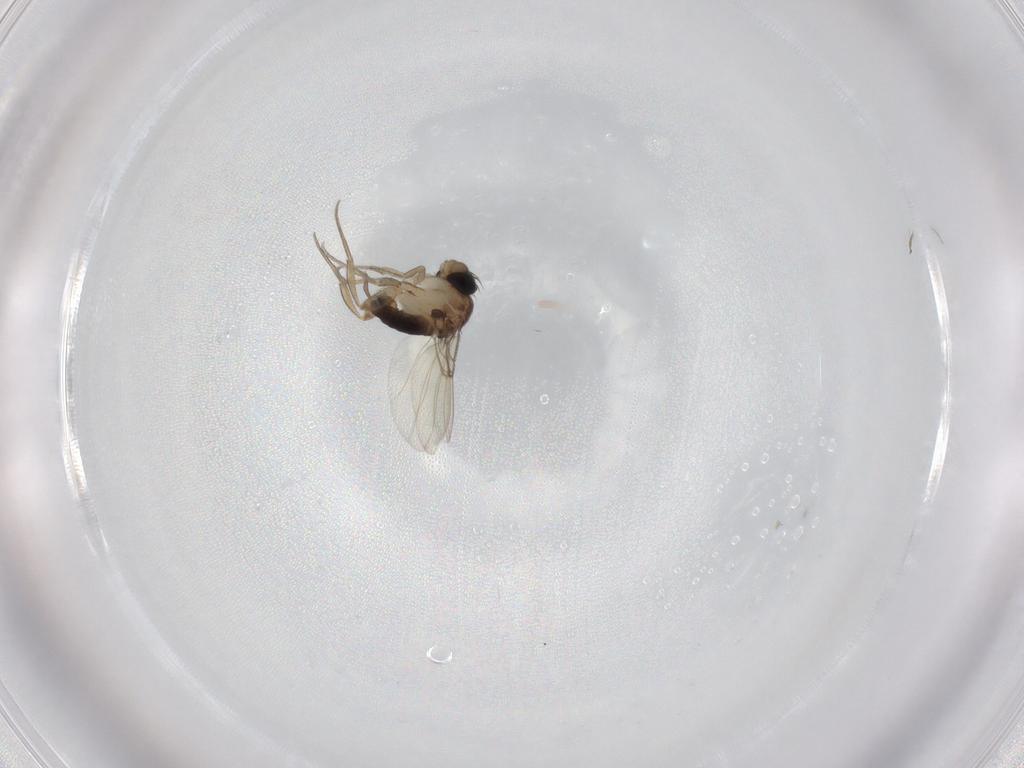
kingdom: Animalia
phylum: Arthropoda
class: Insecta
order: Diptera
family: Phoridae
